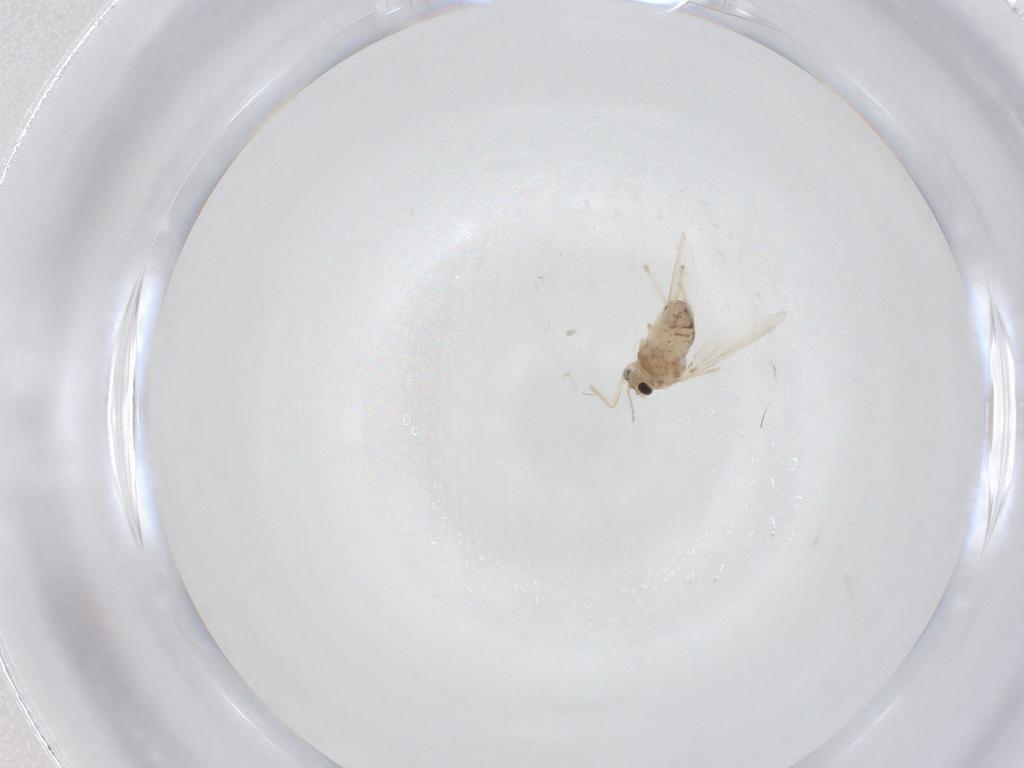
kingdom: Animalia
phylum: Arthropoda
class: Insecta
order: Diptera
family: Chironomidae
